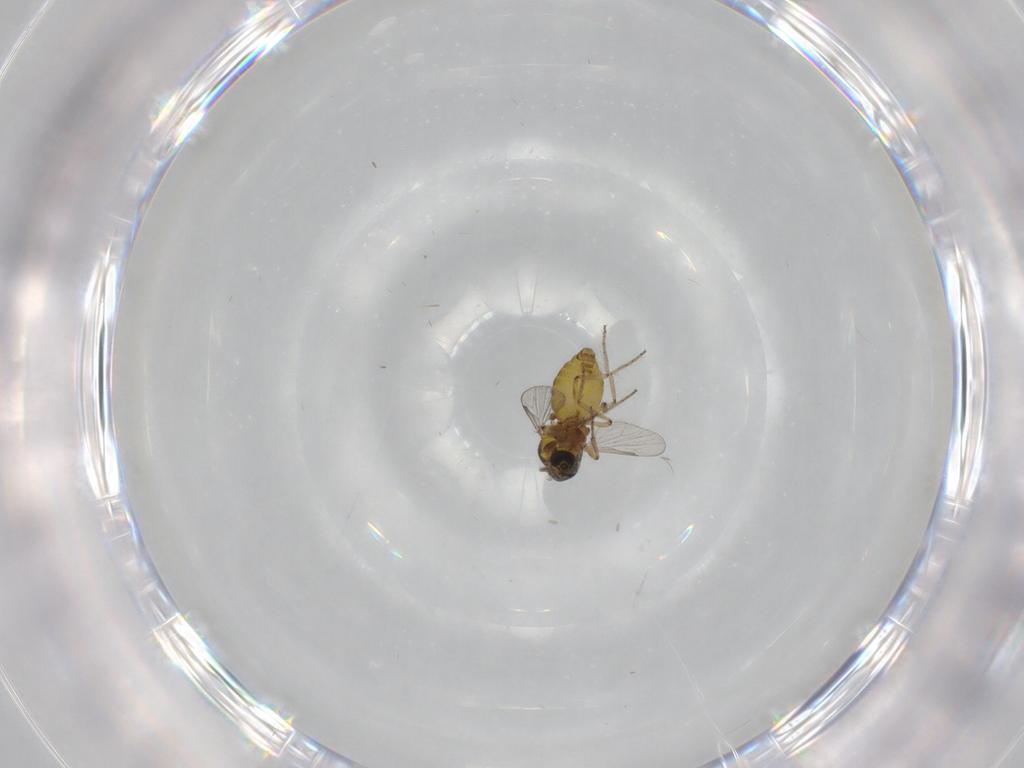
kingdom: Animalia
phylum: Arthropoda
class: Insecta
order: Diptera
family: Ceratopogonidae
